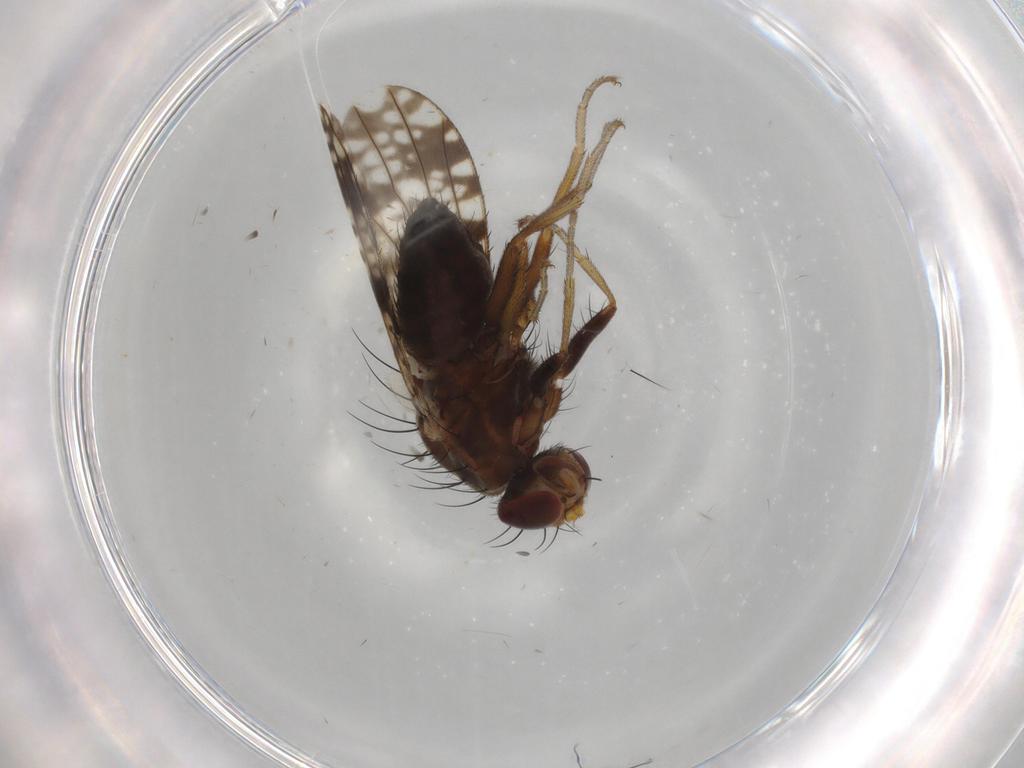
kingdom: Animalia
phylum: Arthropoda
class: Insecta
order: Diptera
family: Tephritidae
